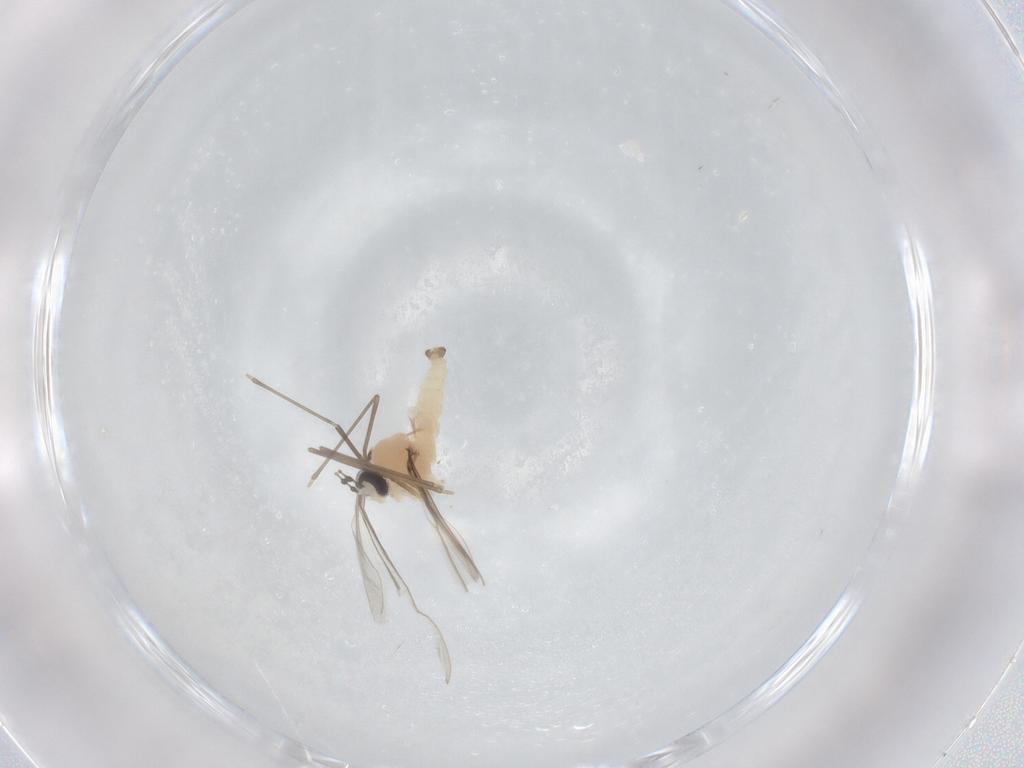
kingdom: Animalia
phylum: Arthropoda
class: Insecta
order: Diptera
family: Cecidomyiidae
